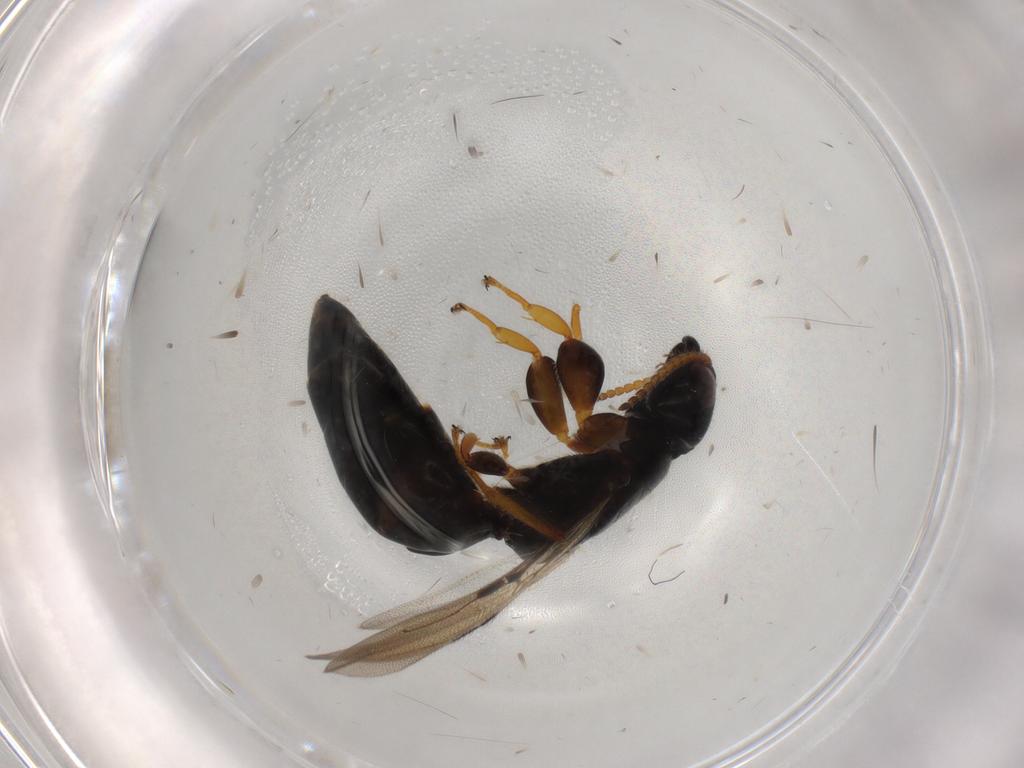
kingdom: Animalia
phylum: Arthropoda
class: Insecta
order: Hymenoptera
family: Bethylidae
